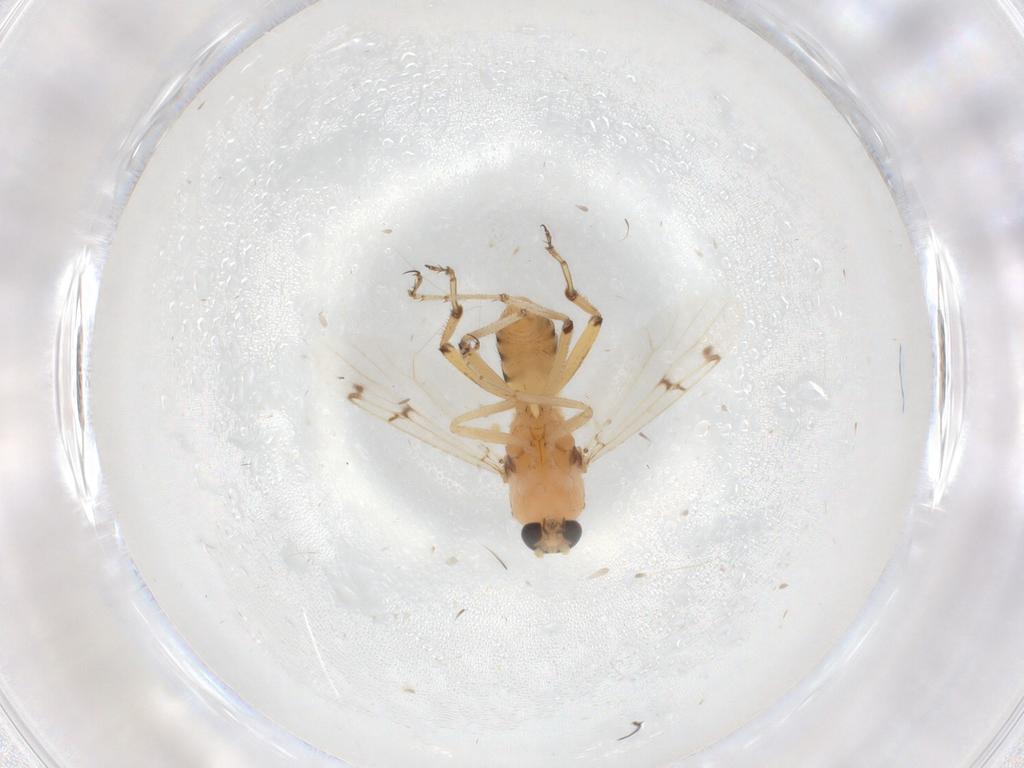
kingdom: Animalia
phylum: Arthropoda
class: Insecta
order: Diptera
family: Chironomidae
